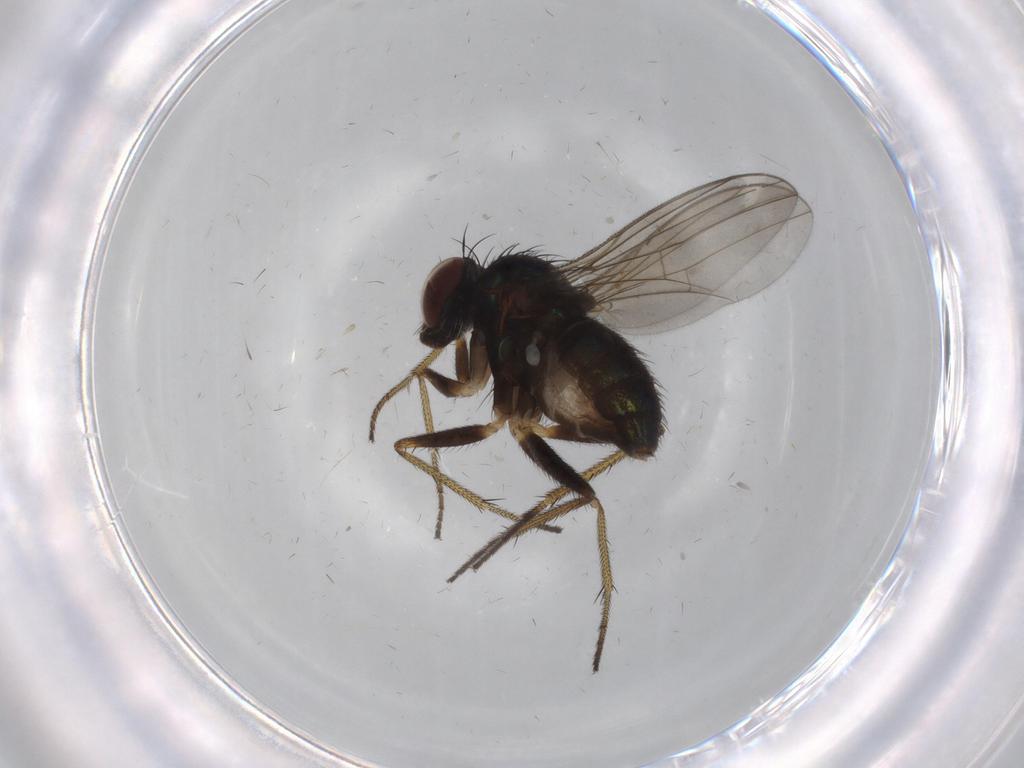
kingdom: Animalia
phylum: Arthropoda
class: Insecta
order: Diptera
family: Dolichopodidae
